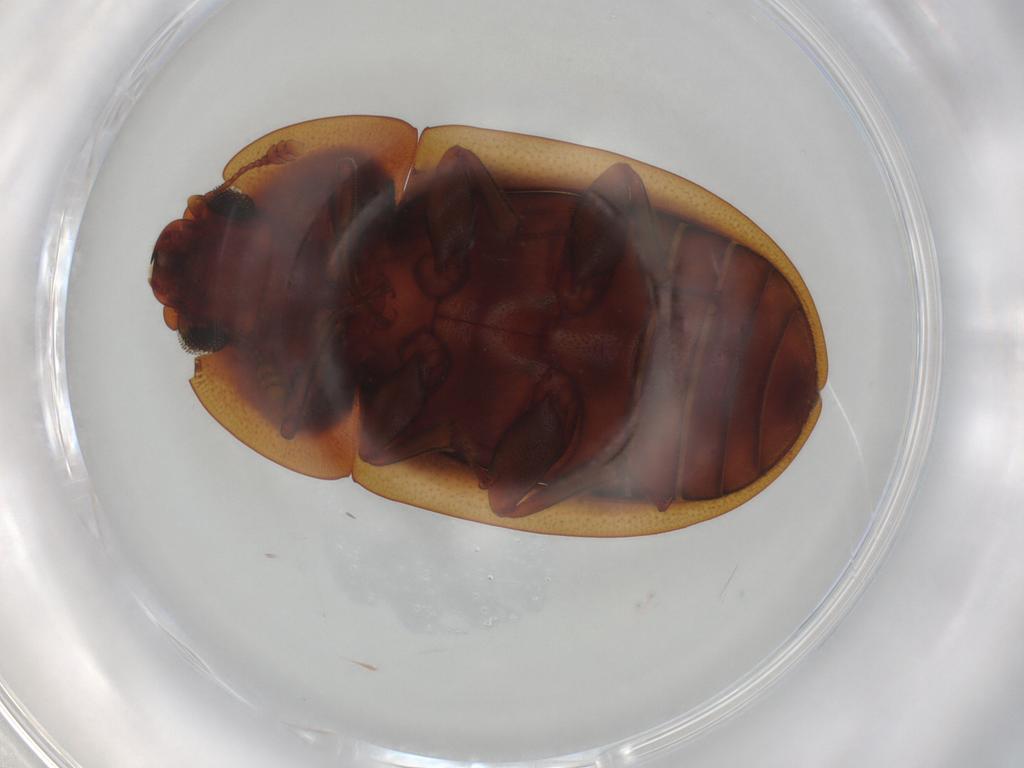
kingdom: Animalia
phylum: Arthropoda
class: Insecta
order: Coleoptera
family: Nitidulidae
